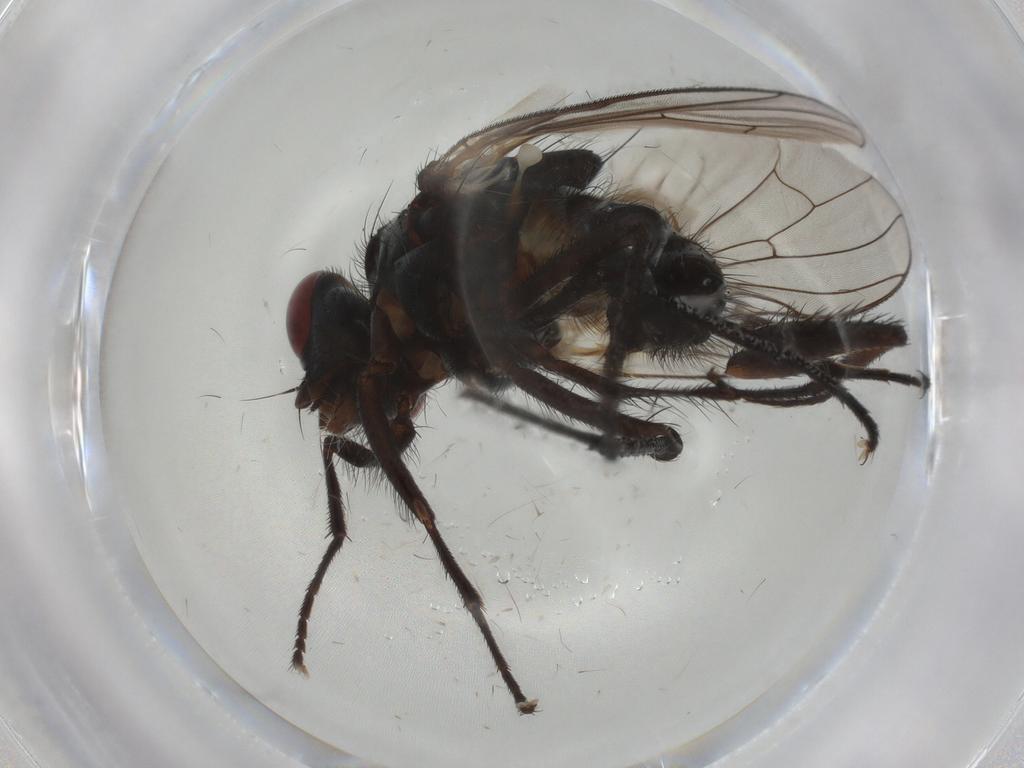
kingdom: Animalia
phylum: Arthropoda
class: Insecta
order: Diptera
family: Anthomyiidae
